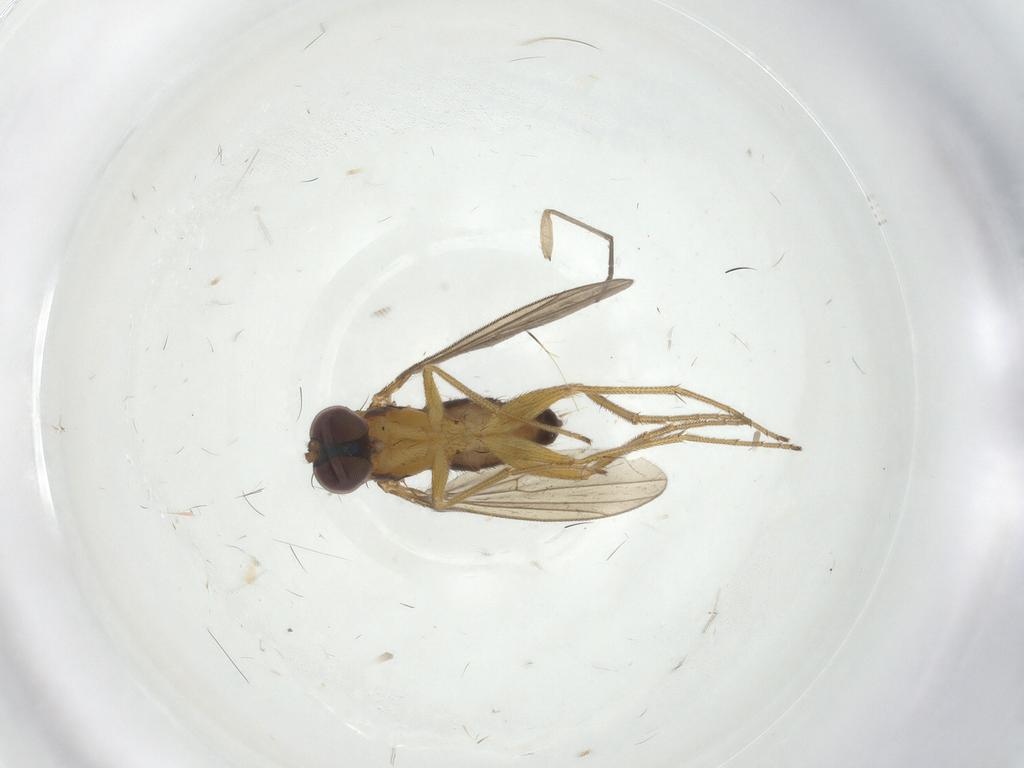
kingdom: Animalia
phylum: Arthropoda
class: Insecta
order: Diptera
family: Dolichopodidae
